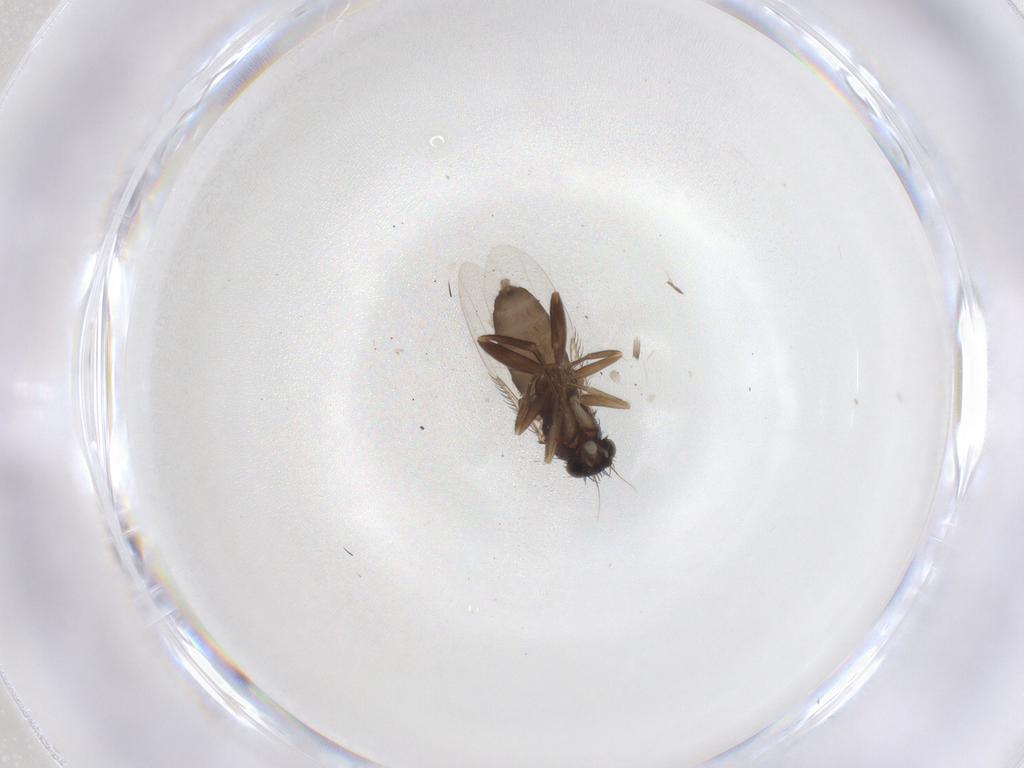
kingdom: Animalia
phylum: Arthropoda
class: Insecta
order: Diptera
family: Phoridae
